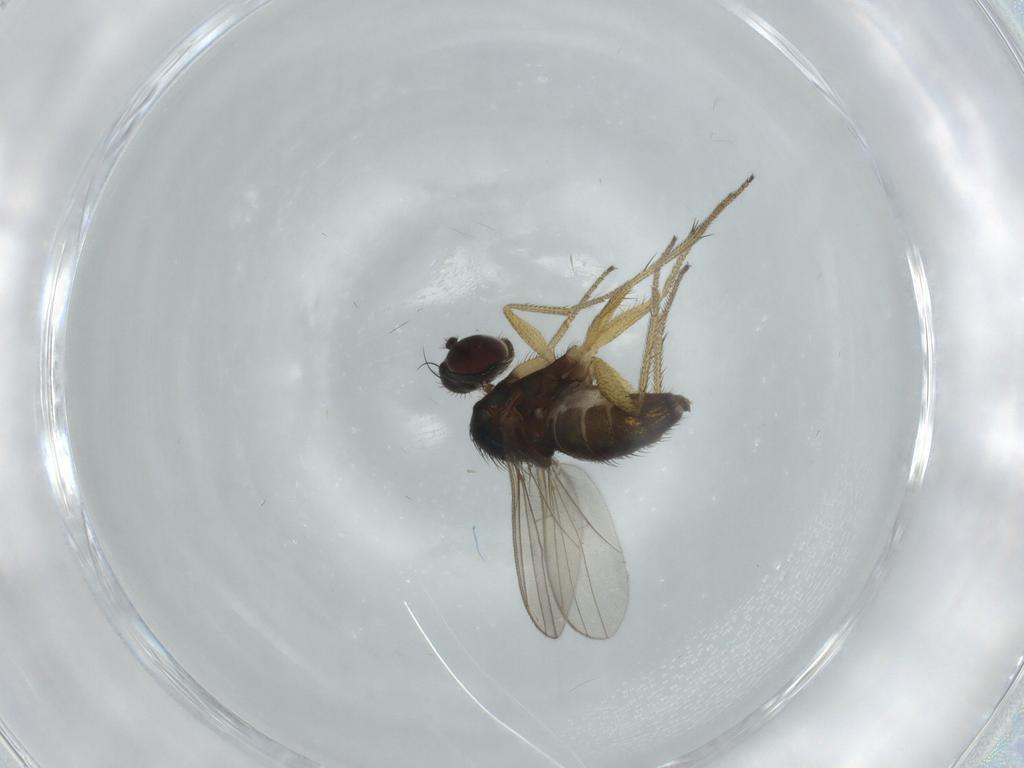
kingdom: Animalia
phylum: Arthropoda
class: Insecta
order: Diptera
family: Dolichopodidae
